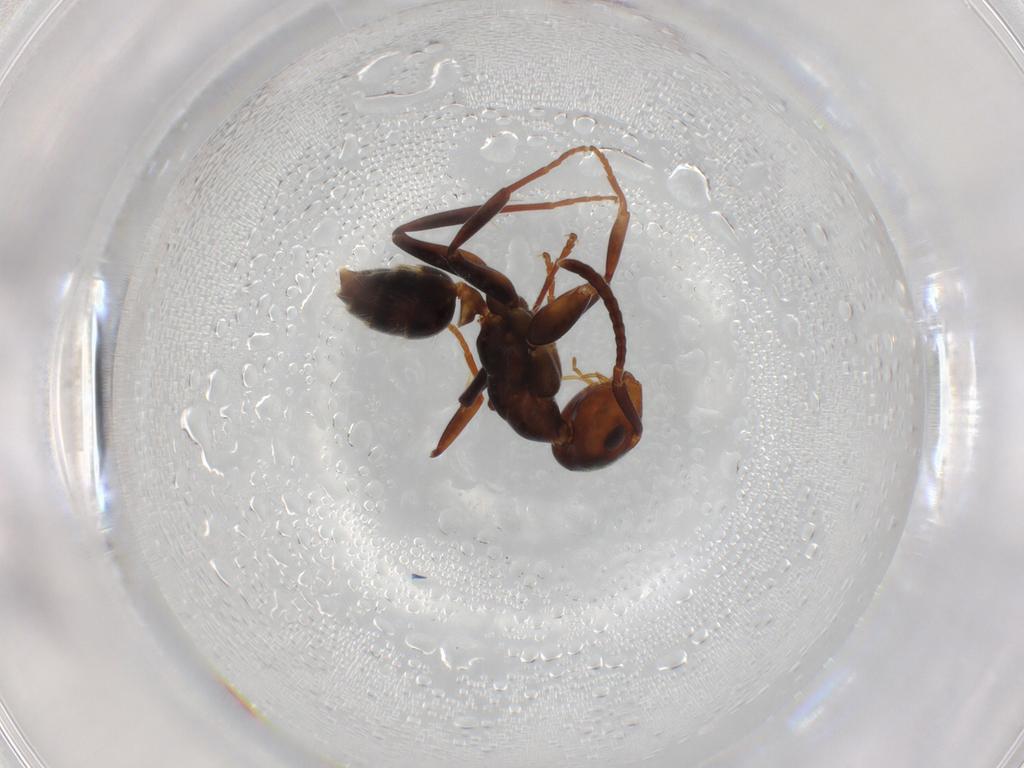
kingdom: Animalia
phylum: Arthropoda
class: Insecta
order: Hymenoptera
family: Formicidae
